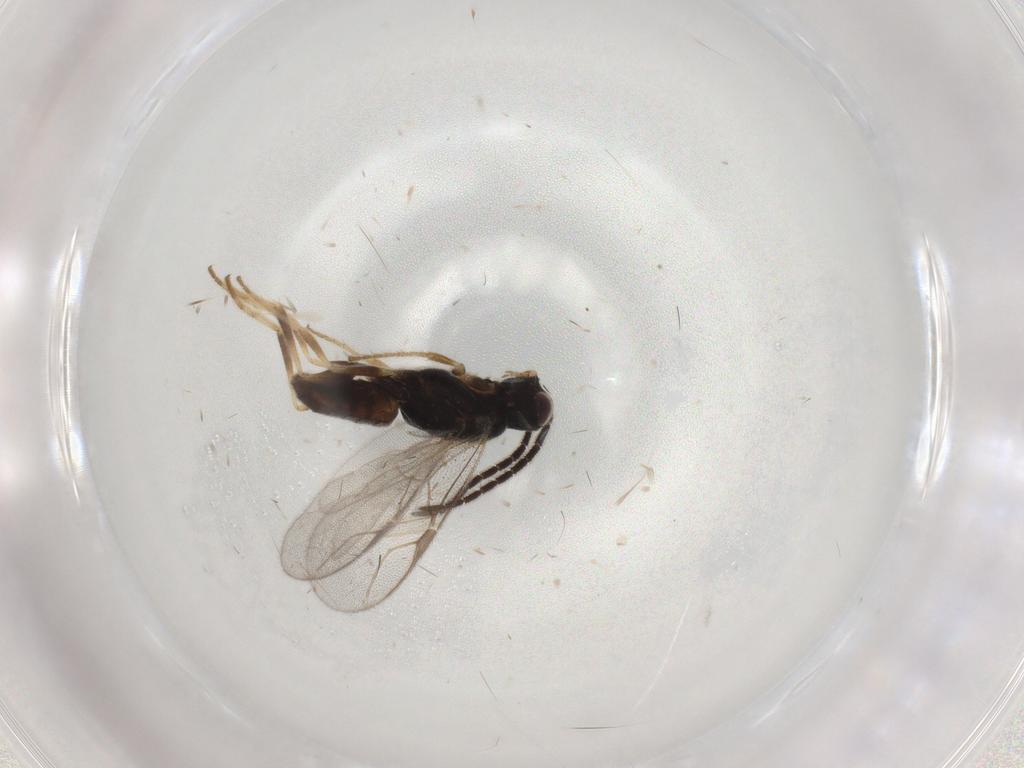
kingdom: Animalia
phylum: Arthropoda
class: Insecta
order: Hymenoptera
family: Dryinidae
